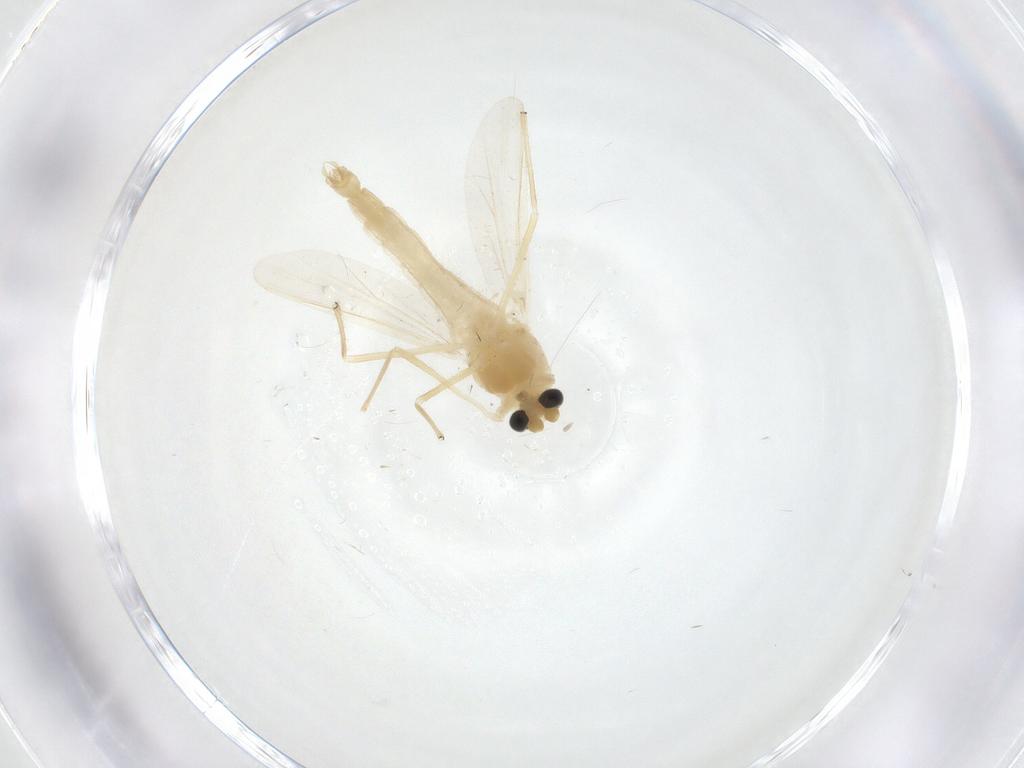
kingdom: Animalia
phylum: Arthropoda
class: Insecta
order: Diptera
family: Chironomidae
